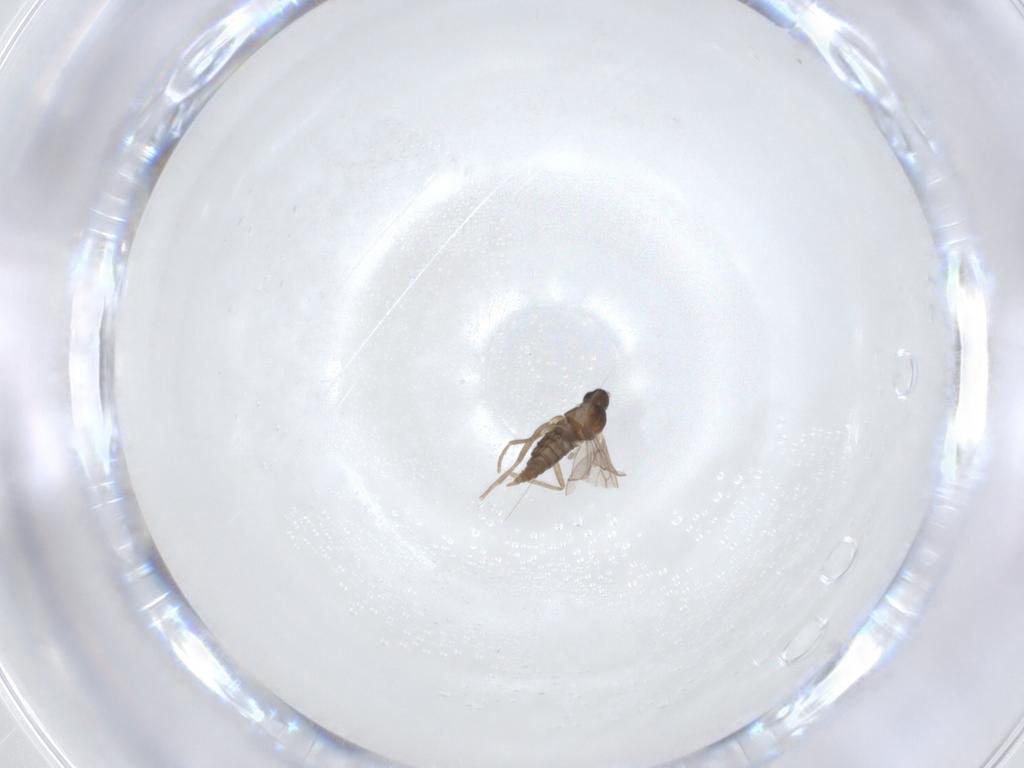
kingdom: Animalia
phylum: Arthropoda
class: Insecta
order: Diptera
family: Cecidomyiidae
